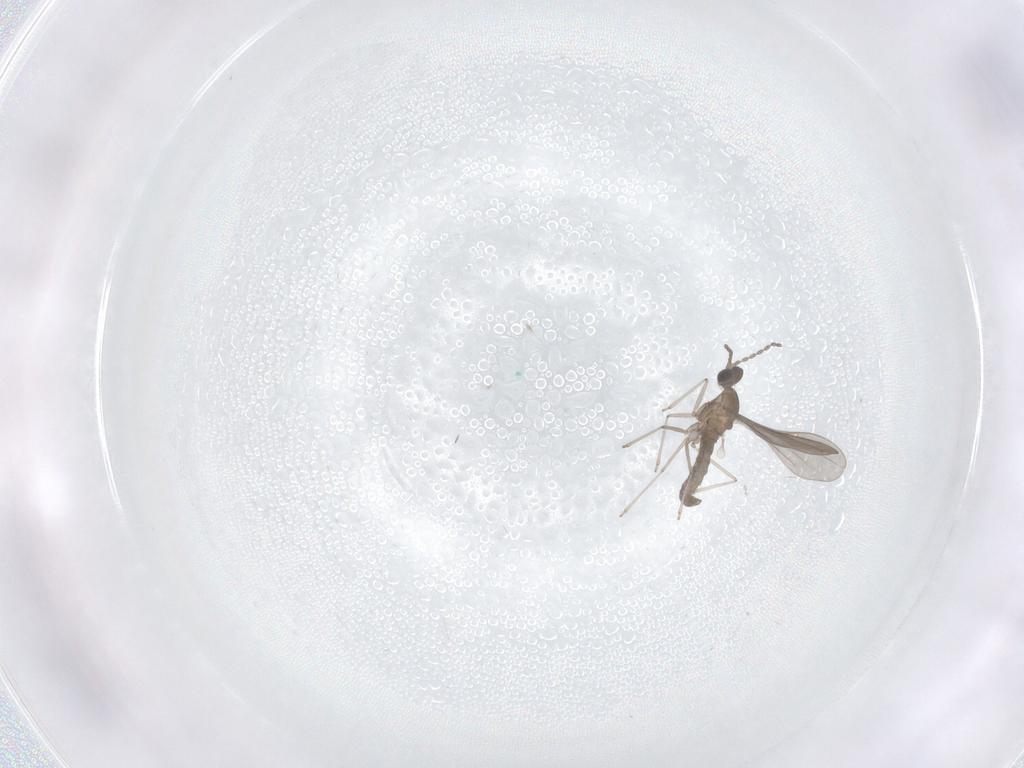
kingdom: Animalia
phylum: Arthropoda
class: Insecta
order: Diptera
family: Limoniidae
